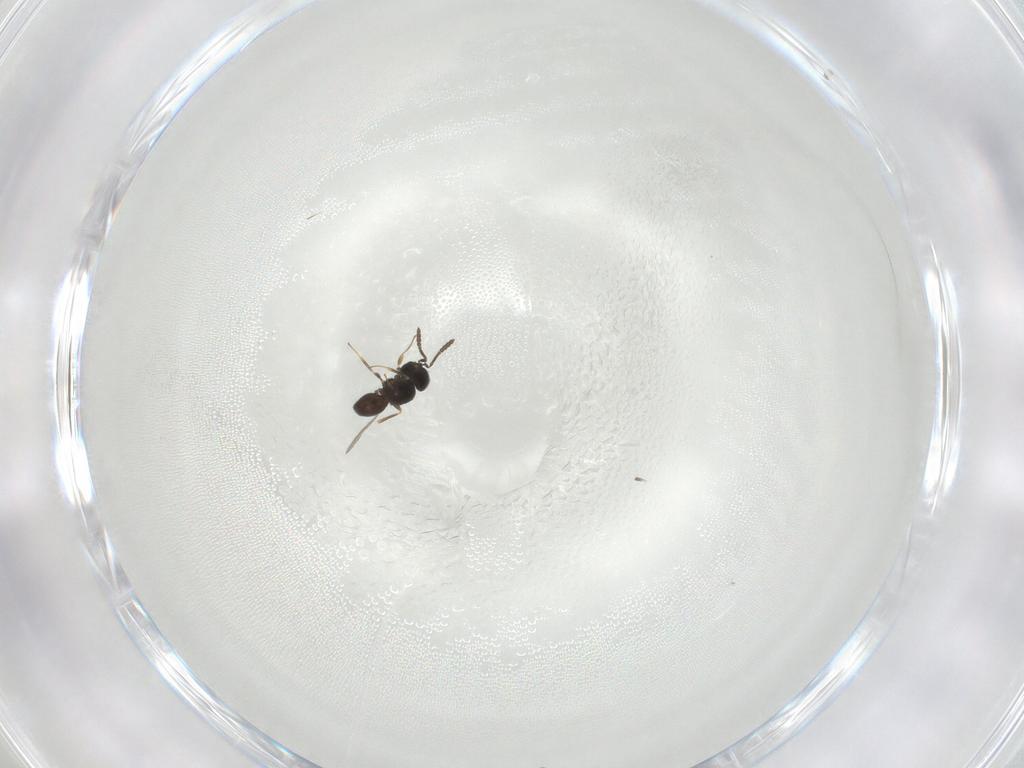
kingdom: Animalia
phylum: Arthropoda
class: Insecta
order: Hymenoptera
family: Scelionidae
